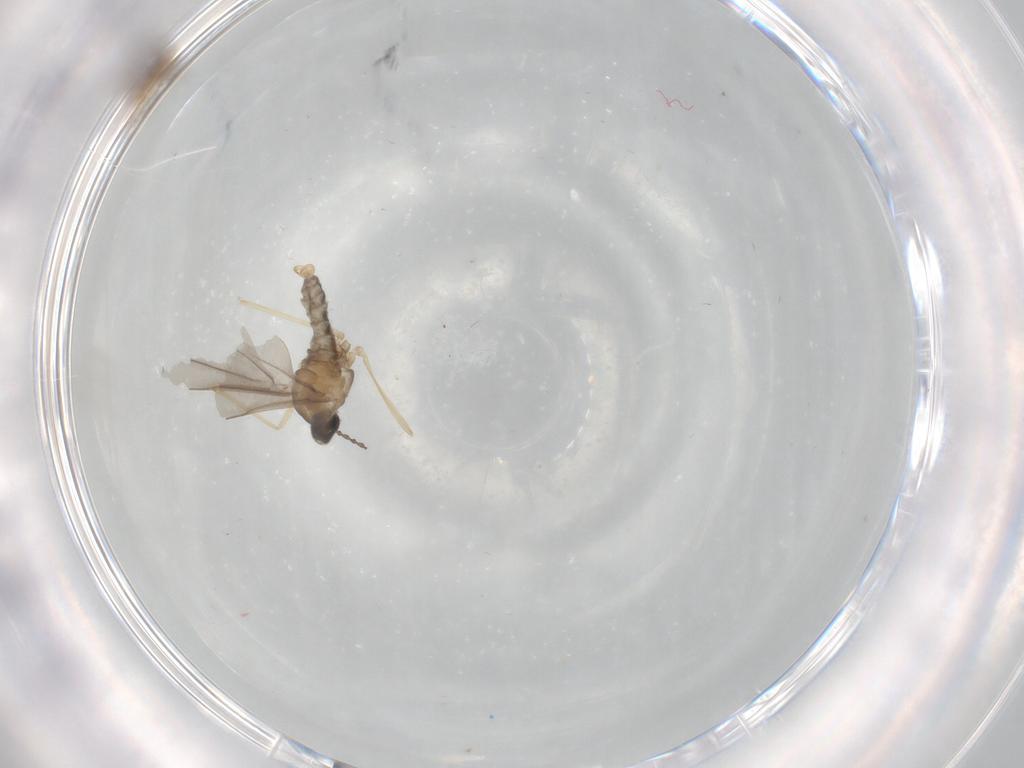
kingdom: Animalia
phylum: Arthropoda
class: Insecta
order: Diptera
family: Cecidomyiidae
